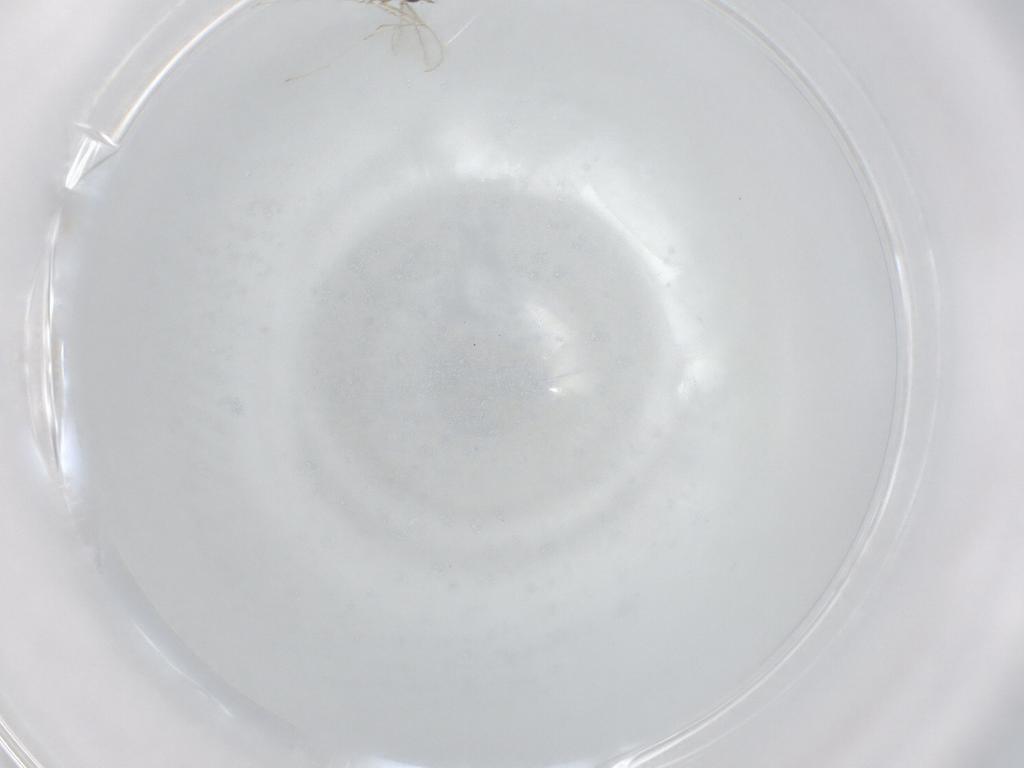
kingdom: Animalia
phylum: Arthropoda
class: Insecta
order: Diptera
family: Cecidomyiidae
